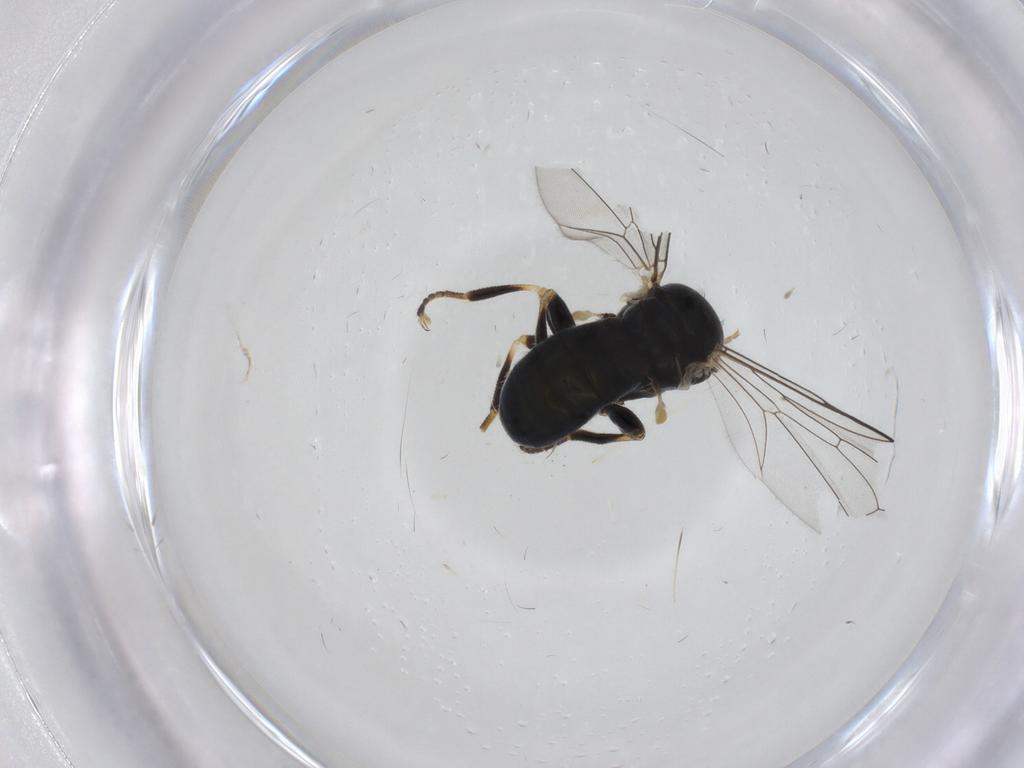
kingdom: Animalia
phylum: Arthropoda
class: Insecta
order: Diptera
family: Pipunculidae
